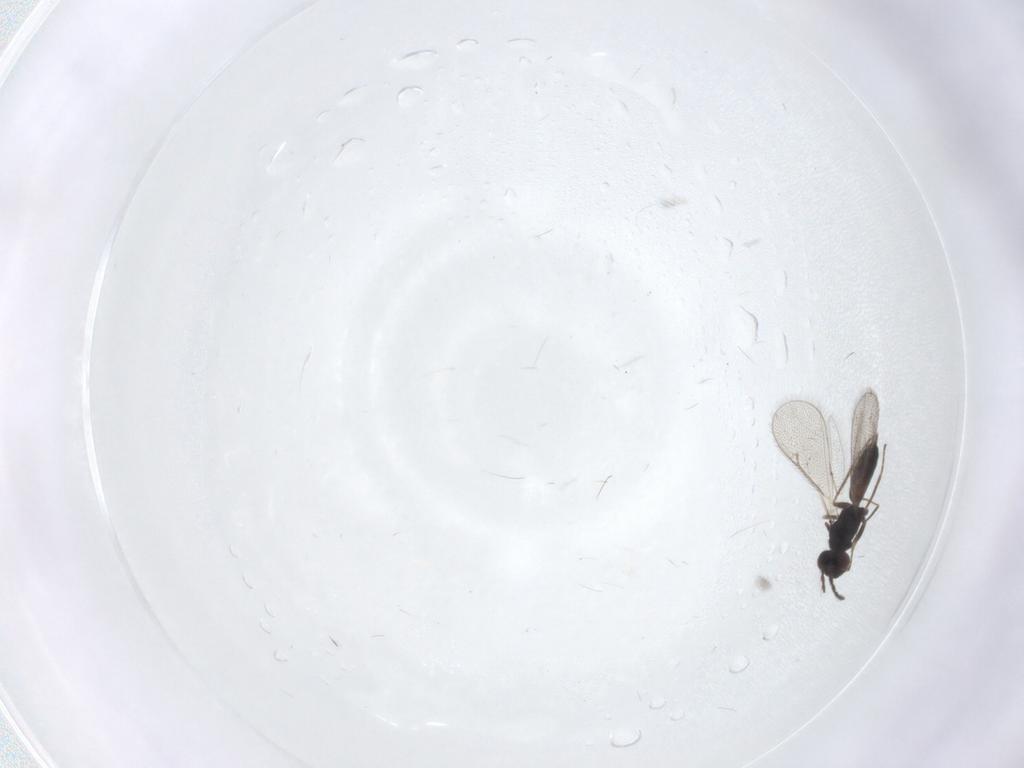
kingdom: Animalia
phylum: Arthropoda
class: Insecta
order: Hymenoptera
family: Eulophidae
